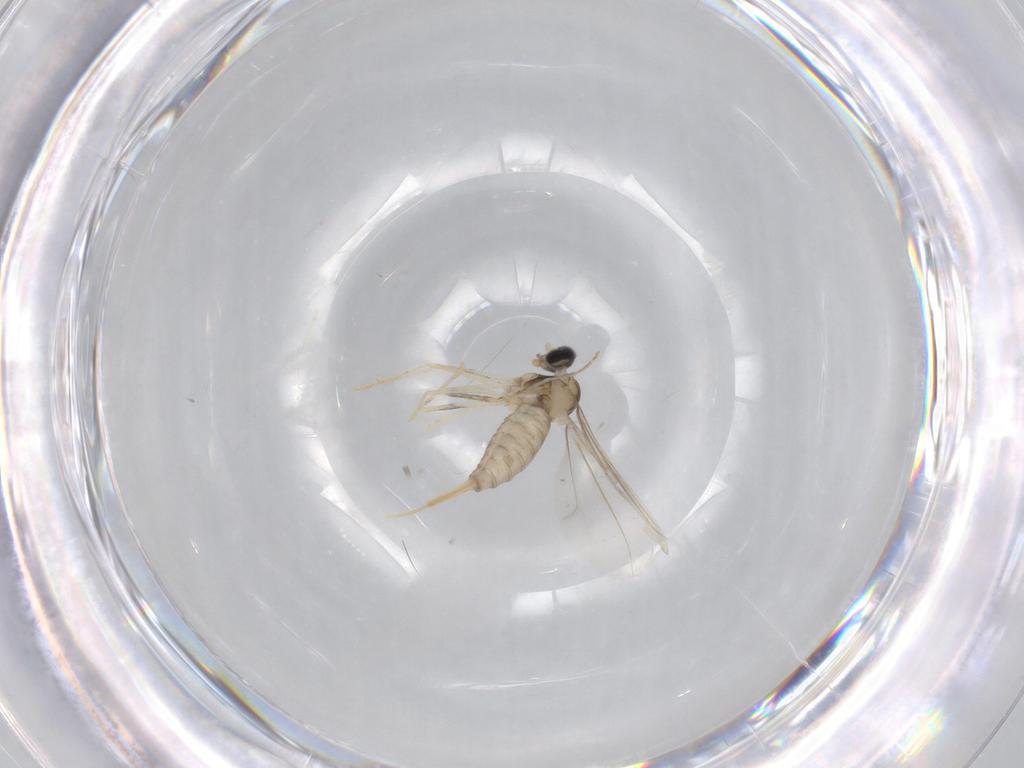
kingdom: Animalia
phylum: Arthropoda
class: Insecta
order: Diptera
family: Cecidomyiidae
